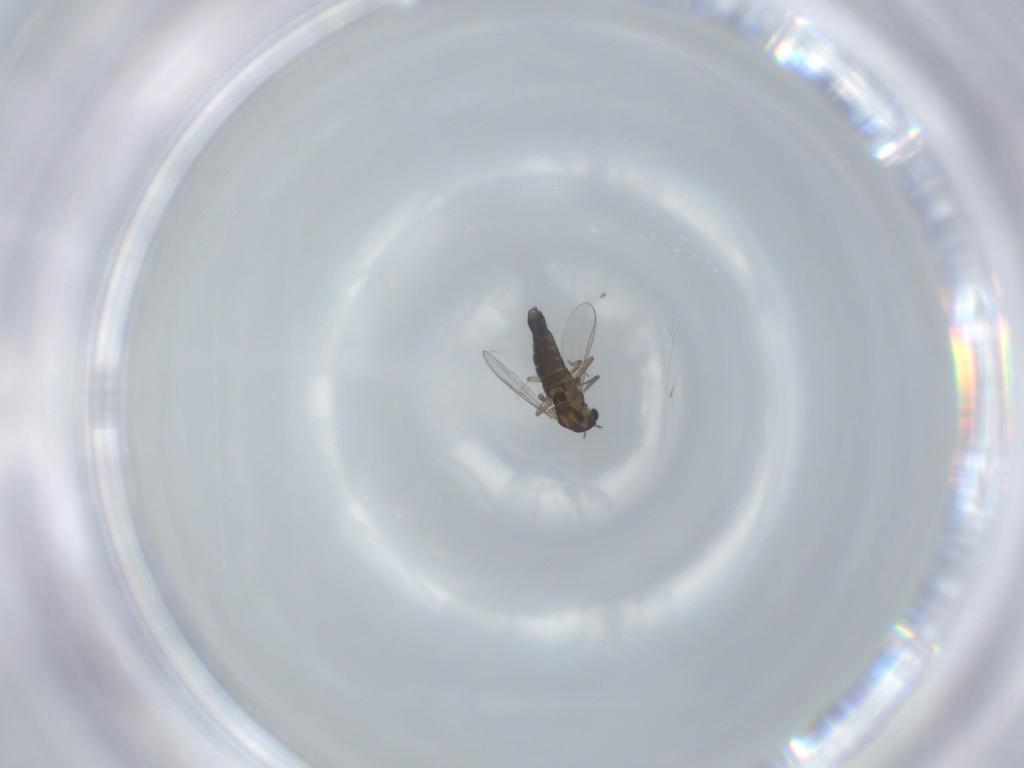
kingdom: Animalia
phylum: Arthropoda
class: Insecta
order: Diptera
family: Chironomidae
